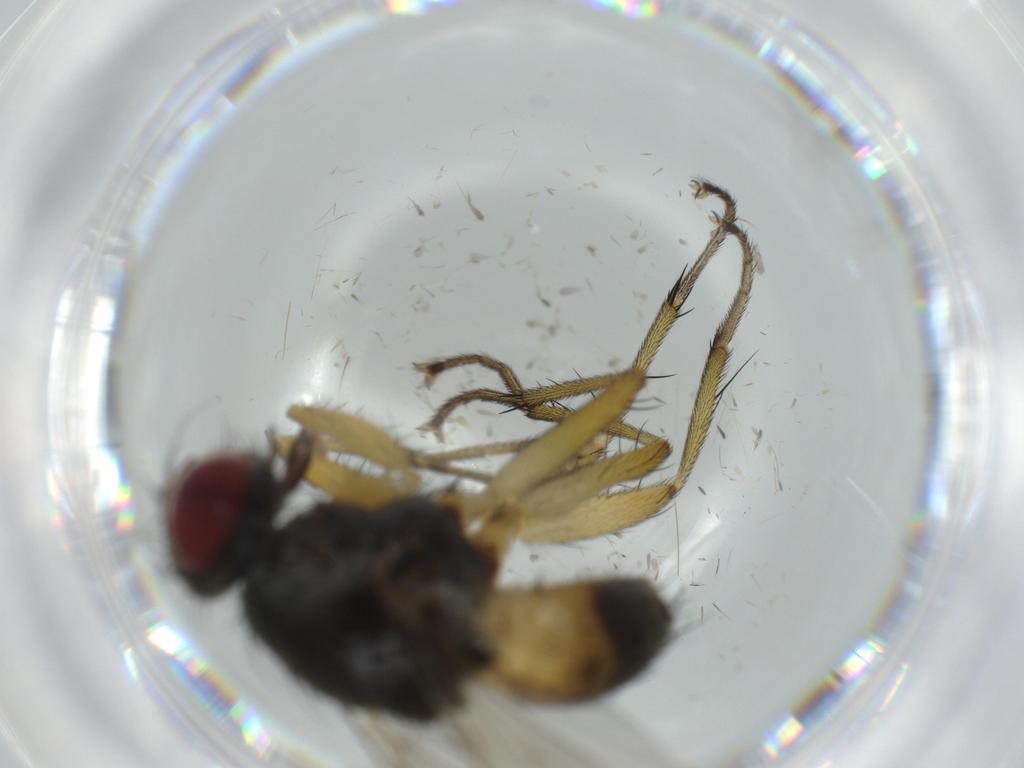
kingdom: Animalia
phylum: Arthropoda
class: Insecta
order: Diptera
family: Muscidae
